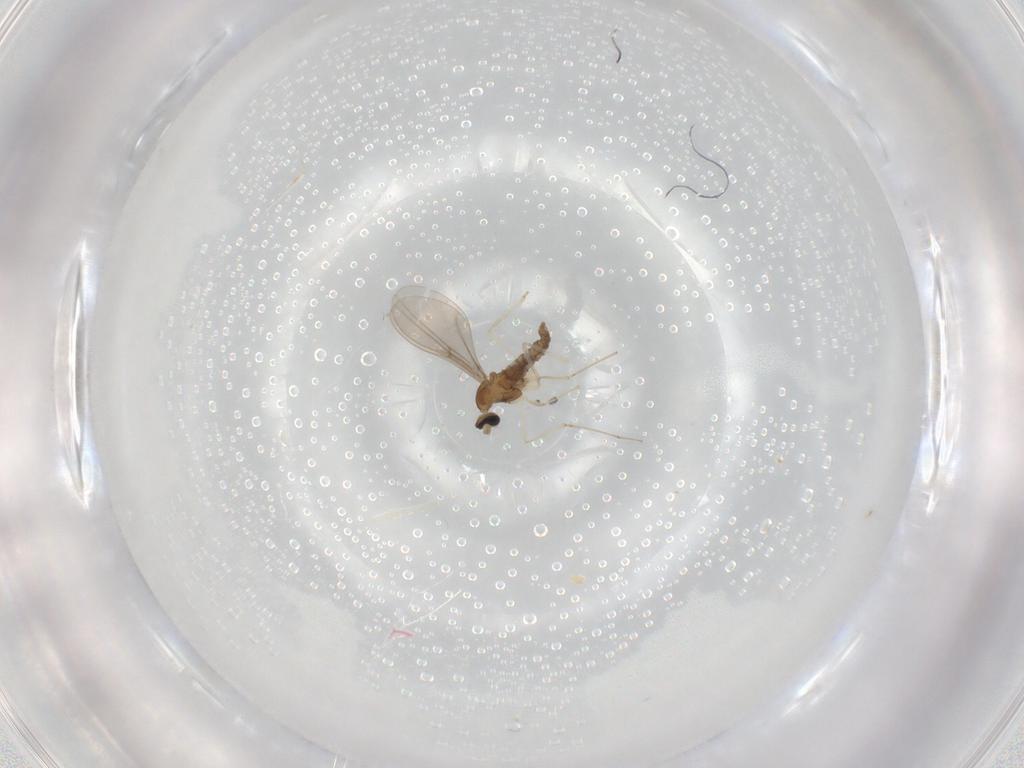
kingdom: Animalia
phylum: Arthropoda
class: Insecta
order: Diptera
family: Cecidomyiidae
